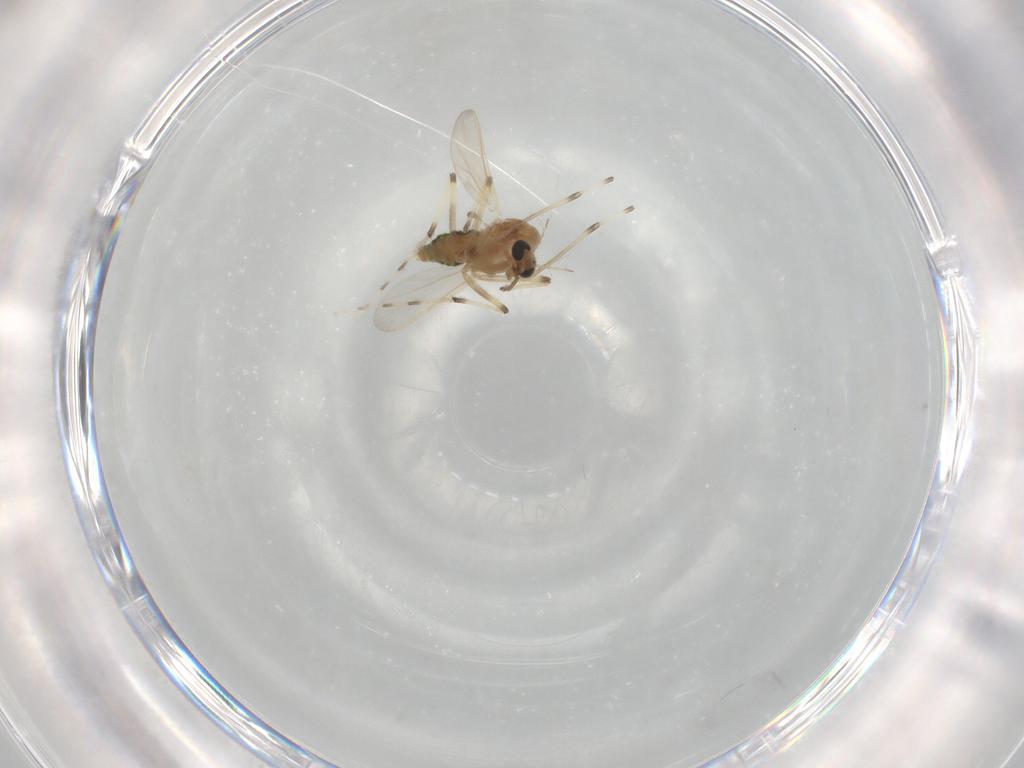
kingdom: Animalia
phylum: Arthropoda
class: Insecta
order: Diptera
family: Chironomidae
